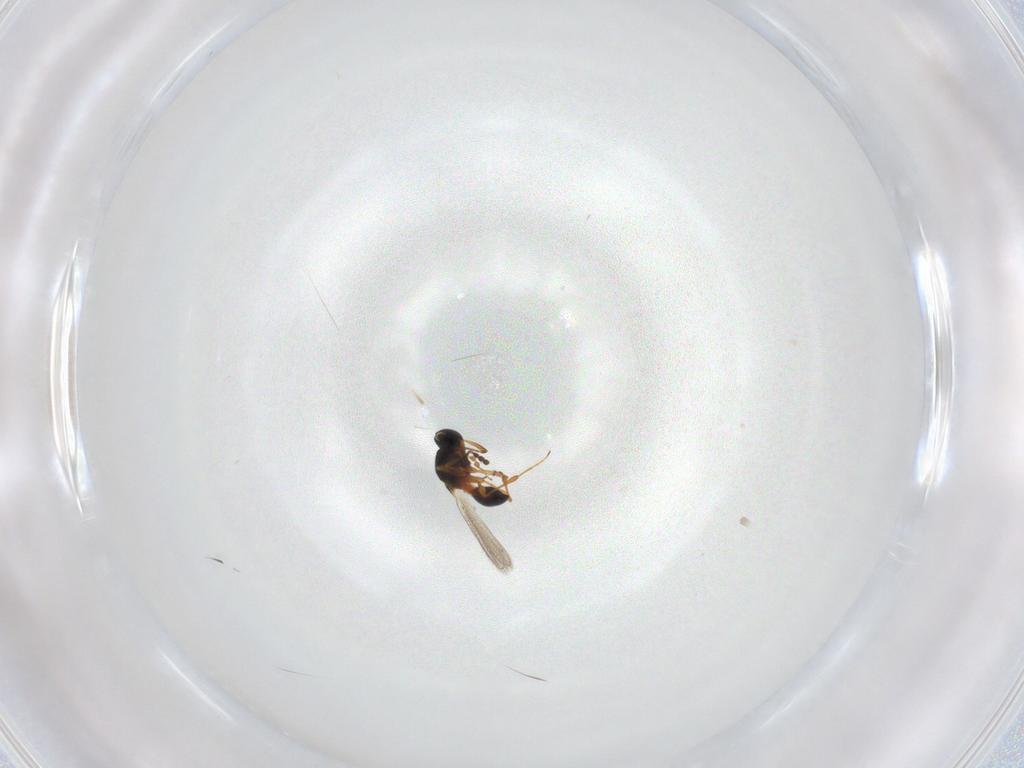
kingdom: Animalia
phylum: Arthropoda
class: Insecta
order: Hymenoptera
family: Platygastridae
